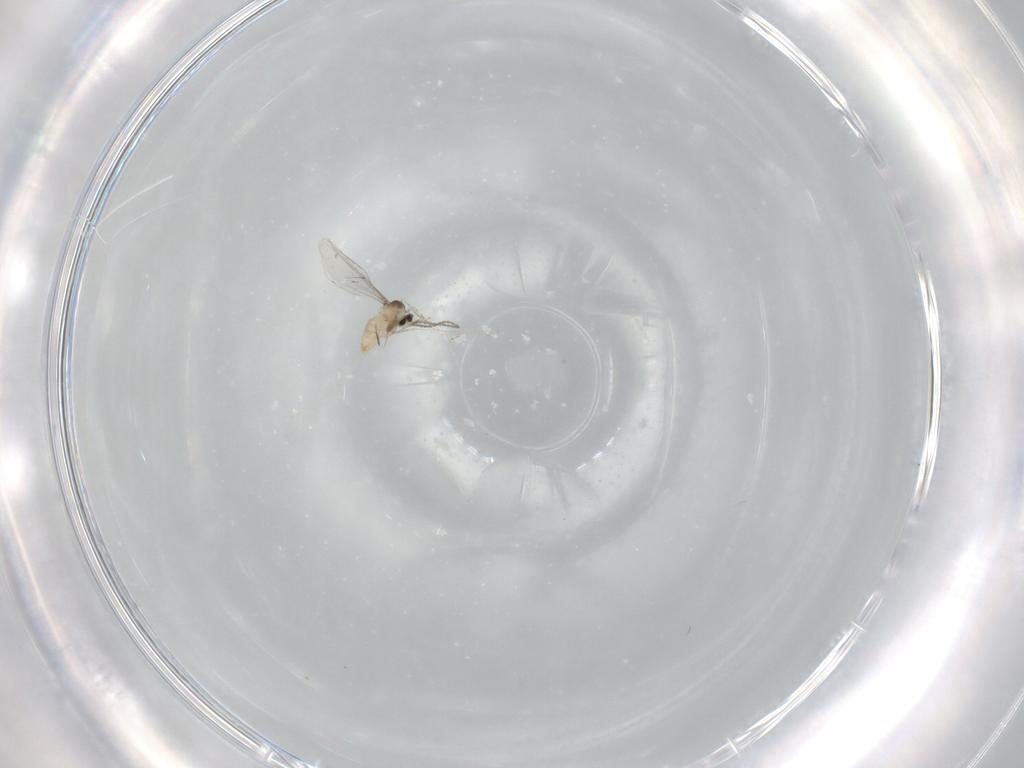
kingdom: Animalia
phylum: Arthropoda
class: Insecta
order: Diptera
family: Cecidomyiidae
